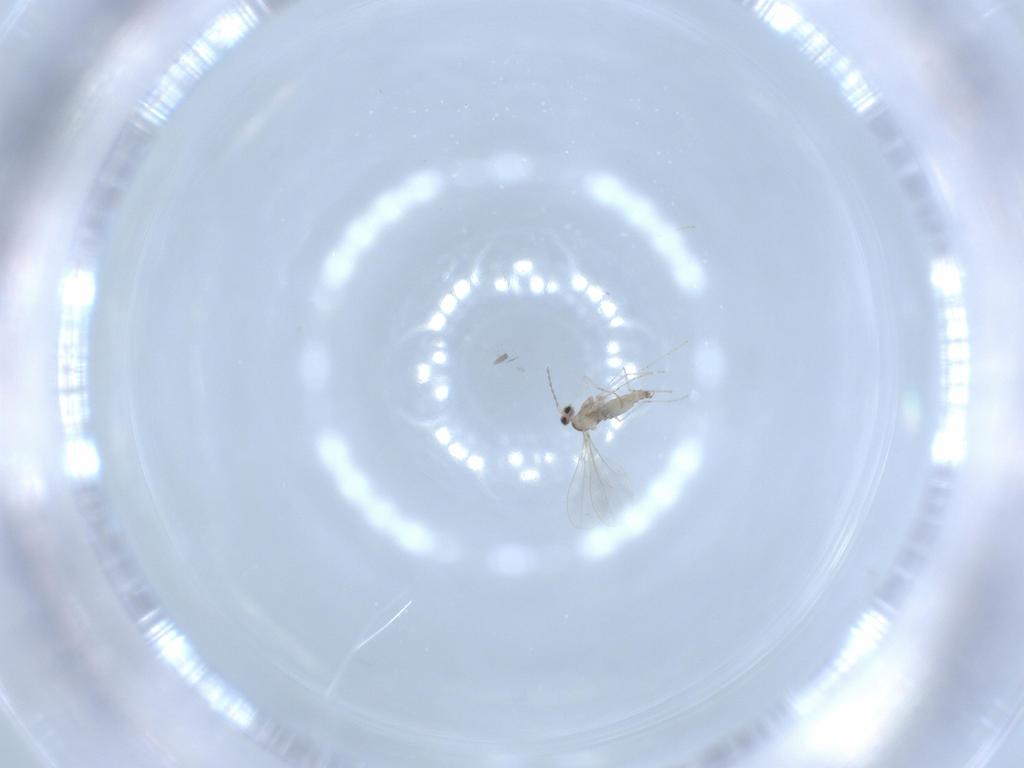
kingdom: Animalia
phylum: Arthropoda
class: Insecta
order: Diptera
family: Cecidomyiidae
